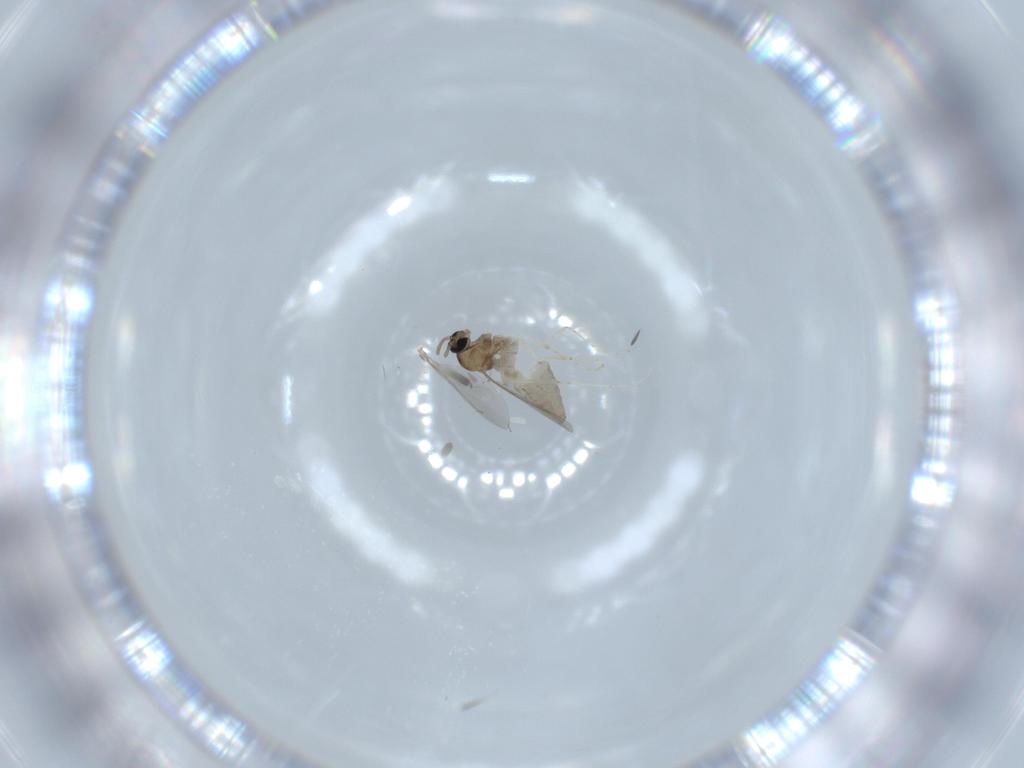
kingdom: Animalia
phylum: Arthropoda
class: Insecta
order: Diptera
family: Cecidomyiidae
